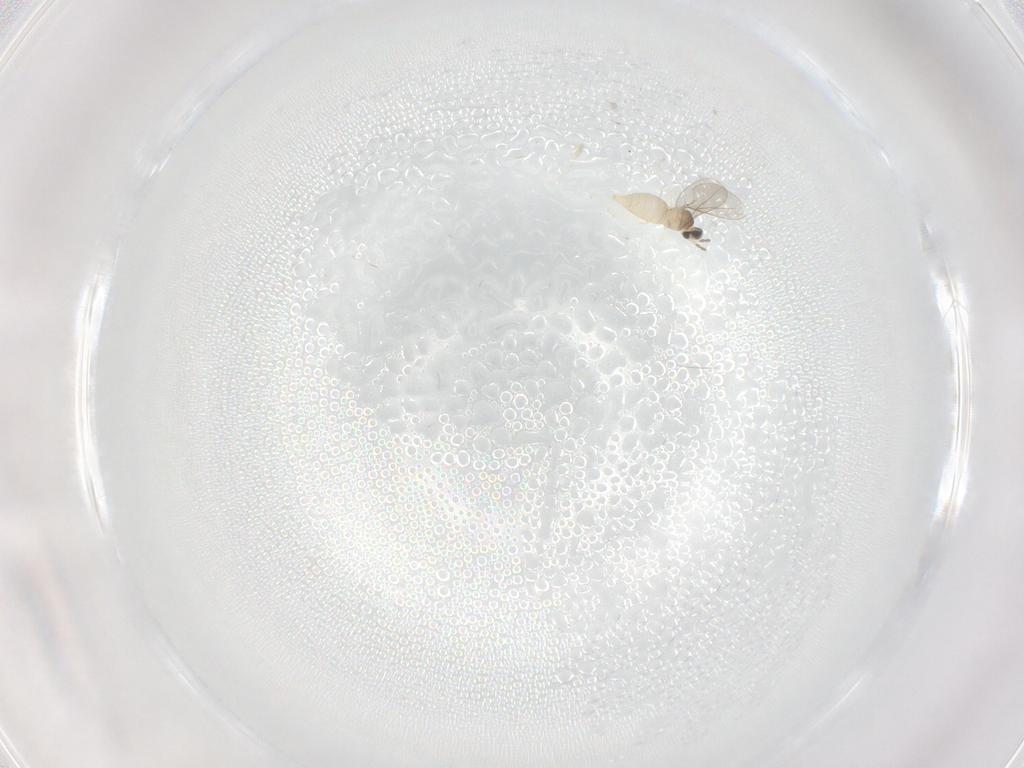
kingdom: Animalia
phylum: Arthropoda
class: Insecta
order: Diptera
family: Cecidomyiidae
